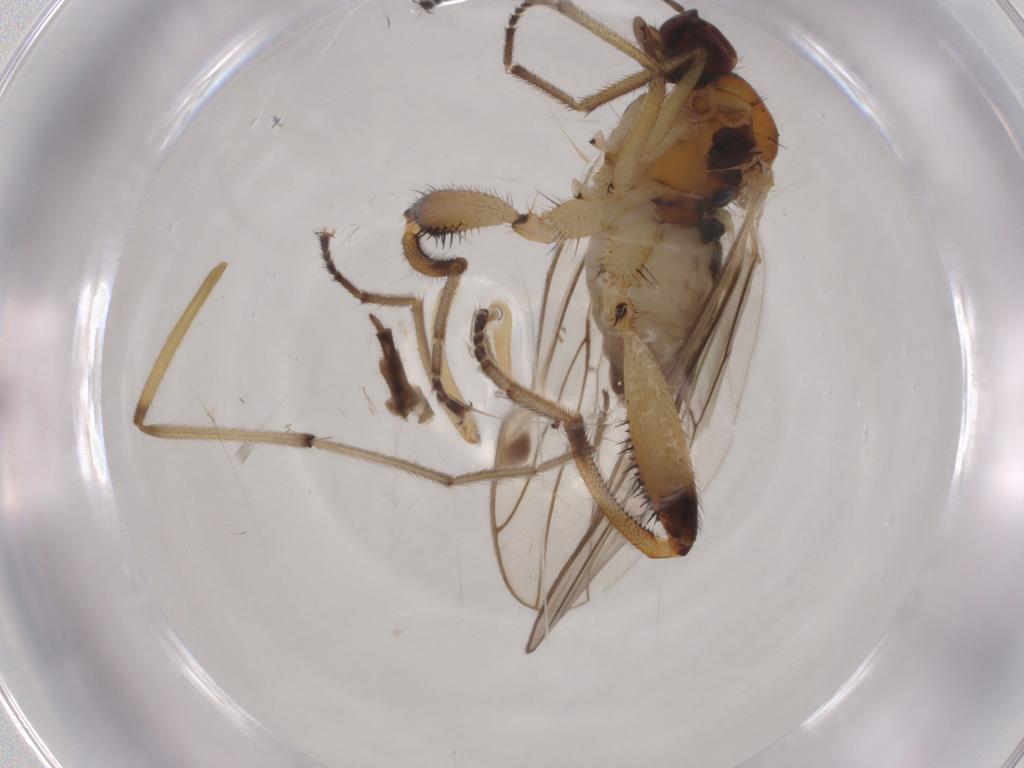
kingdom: Animalia
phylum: Arthropoda
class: Insecta
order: Diptera
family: Hybotidae
